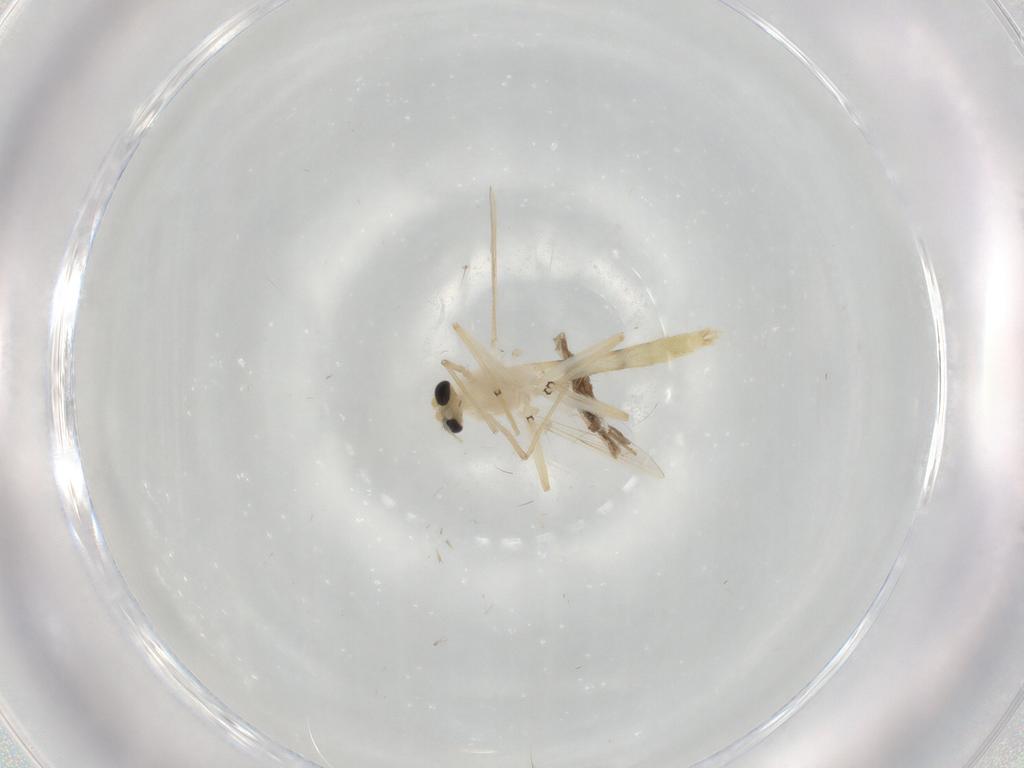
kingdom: Animalia
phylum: Arthropoda
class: Insecta
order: Diptera
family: Chironomidae
